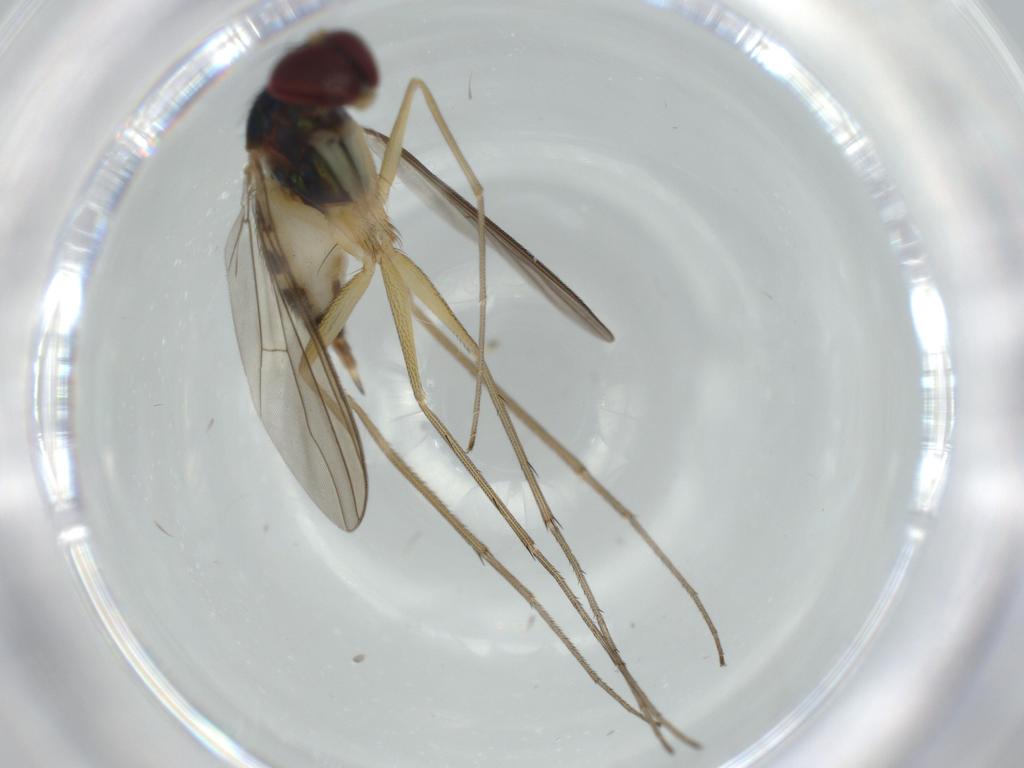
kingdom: Animalia
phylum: Arthropoda
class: Insecta
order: Diptera
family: Dolichopodidae
